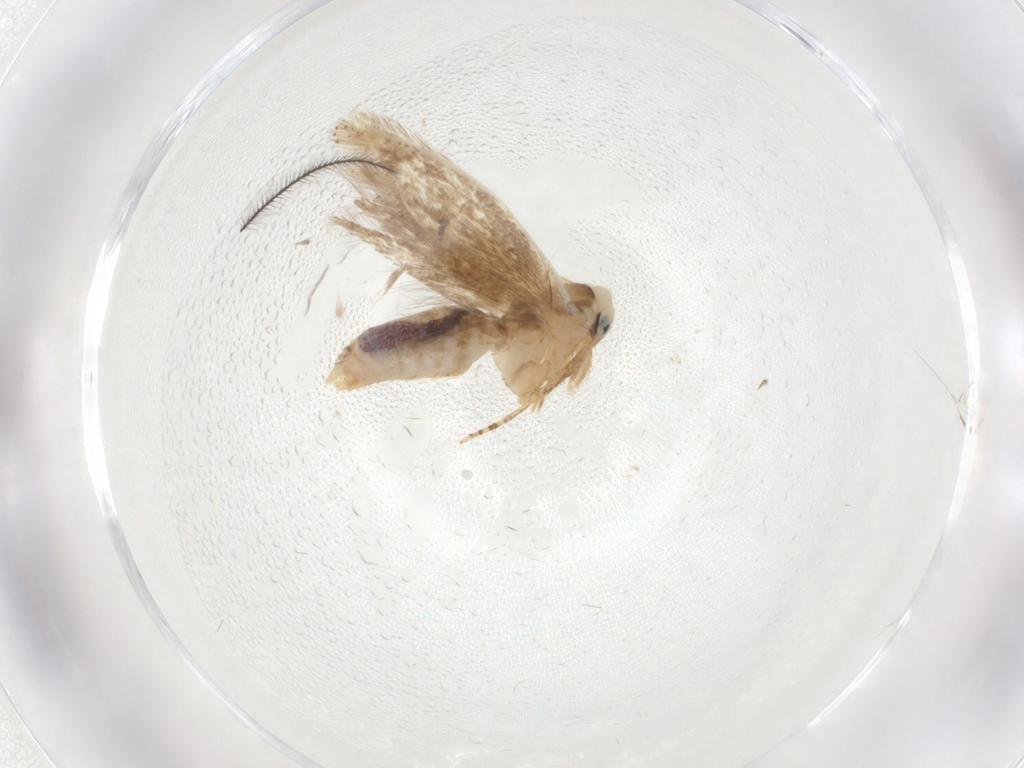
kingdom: Animalia
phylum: Arthropoda
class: Insecta
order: Lepidoptera
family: Bucculatricidae
